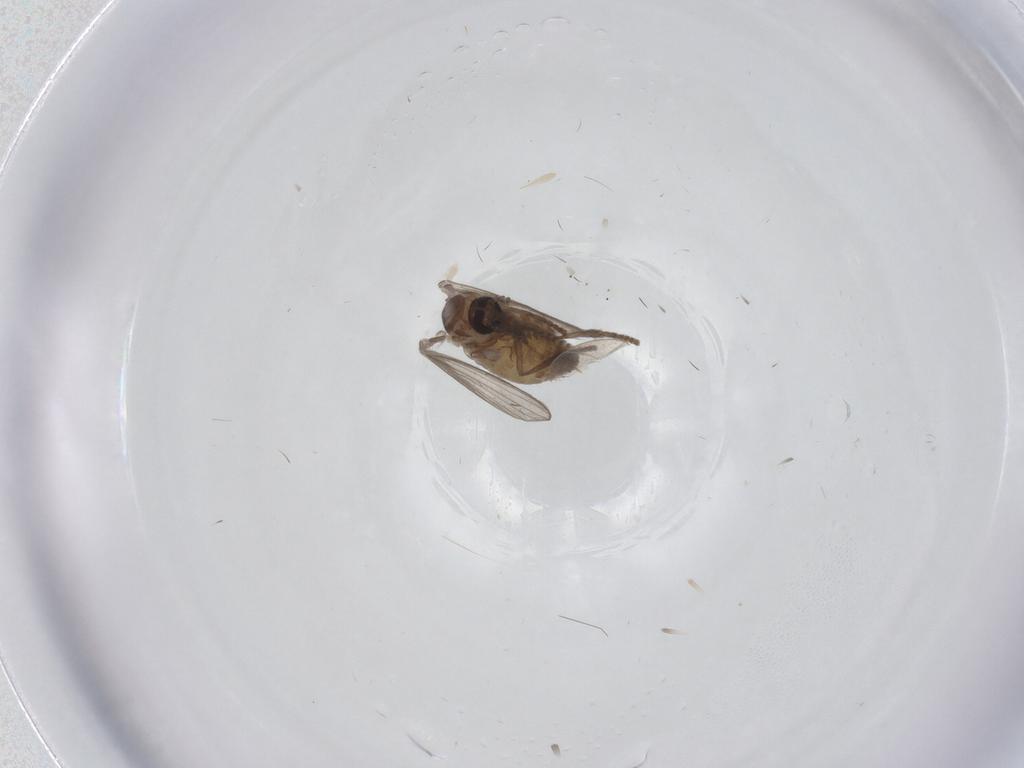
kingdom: Animalia
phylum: Arthropoda
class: Insecta
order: Diptera
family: Psychodidae
